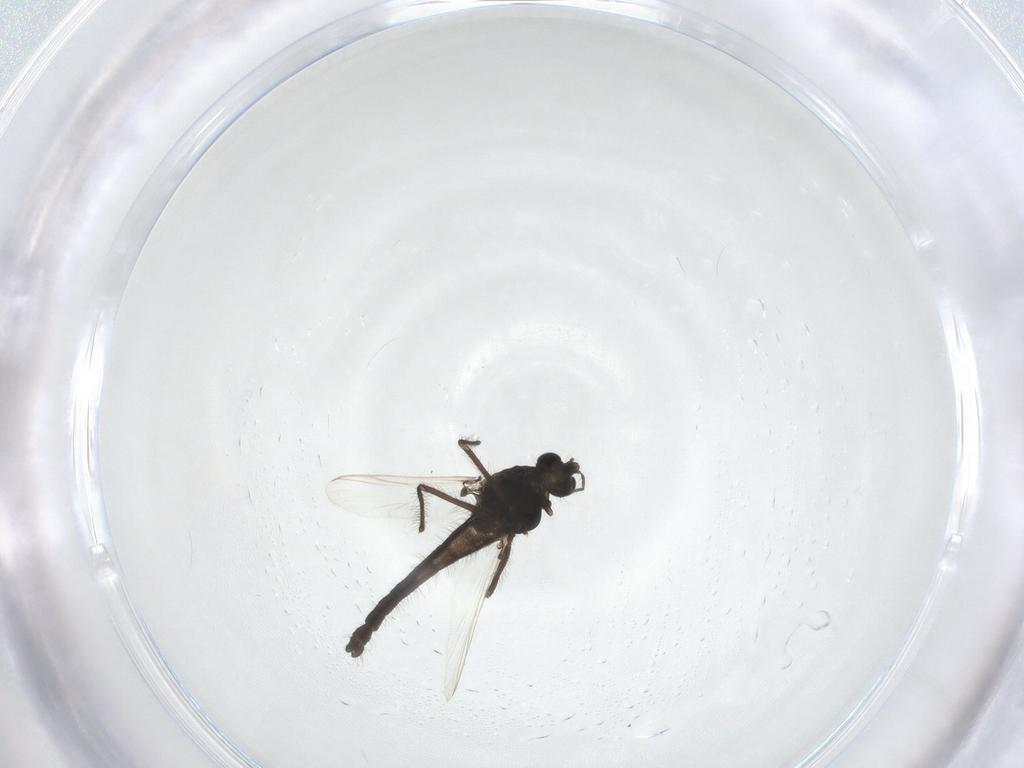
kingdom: Animalia
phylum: Arthropoda
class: Insecta
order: Diptera
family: Chironomidae
